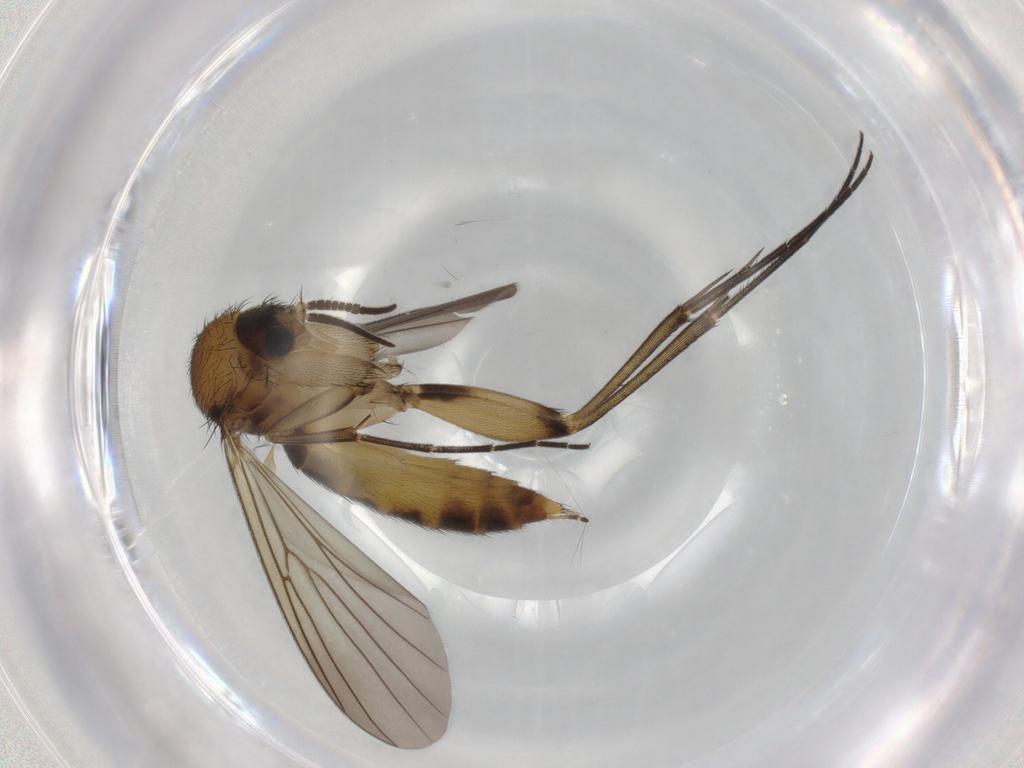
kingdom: Animalia
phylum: Arthropoda
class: Insecta
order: Diptera
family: Mycetophilidae
